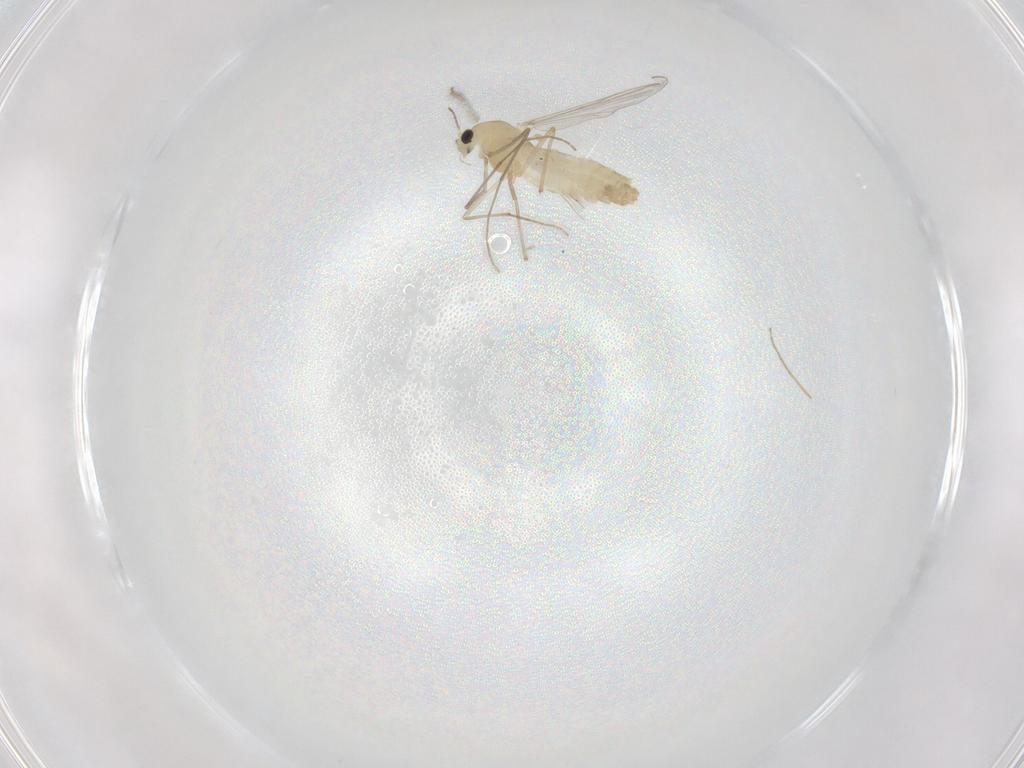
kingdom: Animalia
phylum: Arthropoda
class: Insecta
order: Diptera
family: Chironomidae
